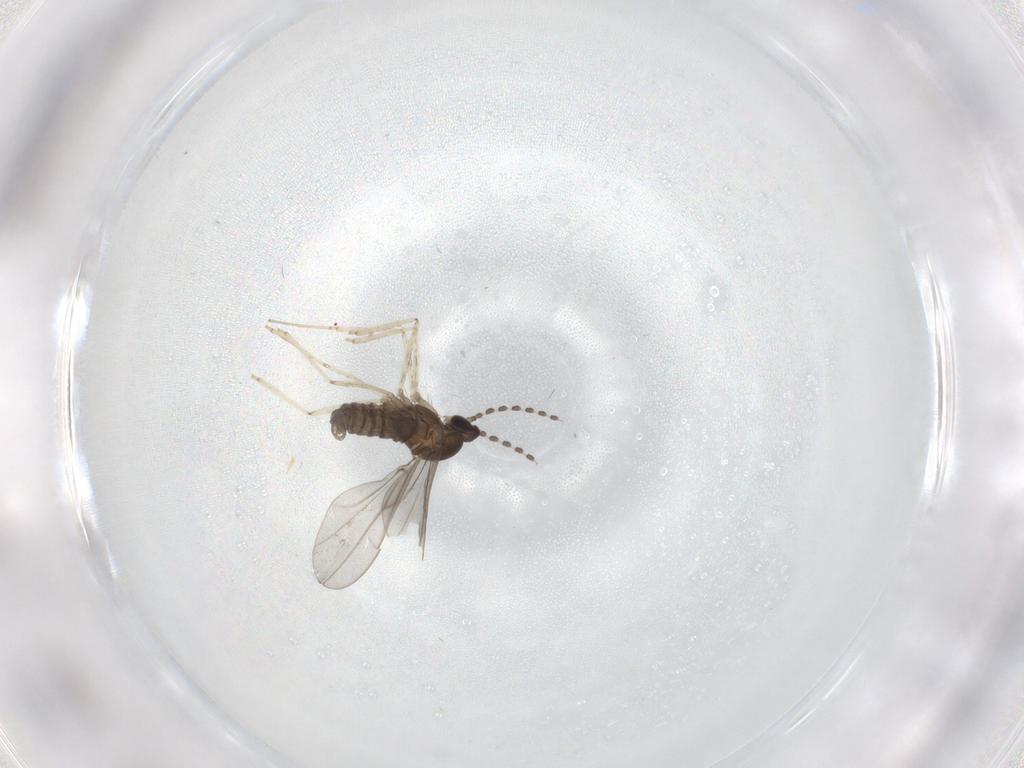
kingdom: Animalia
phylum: Arthropoda
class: Insecta
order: Diptera
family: Cecidomyiidae
